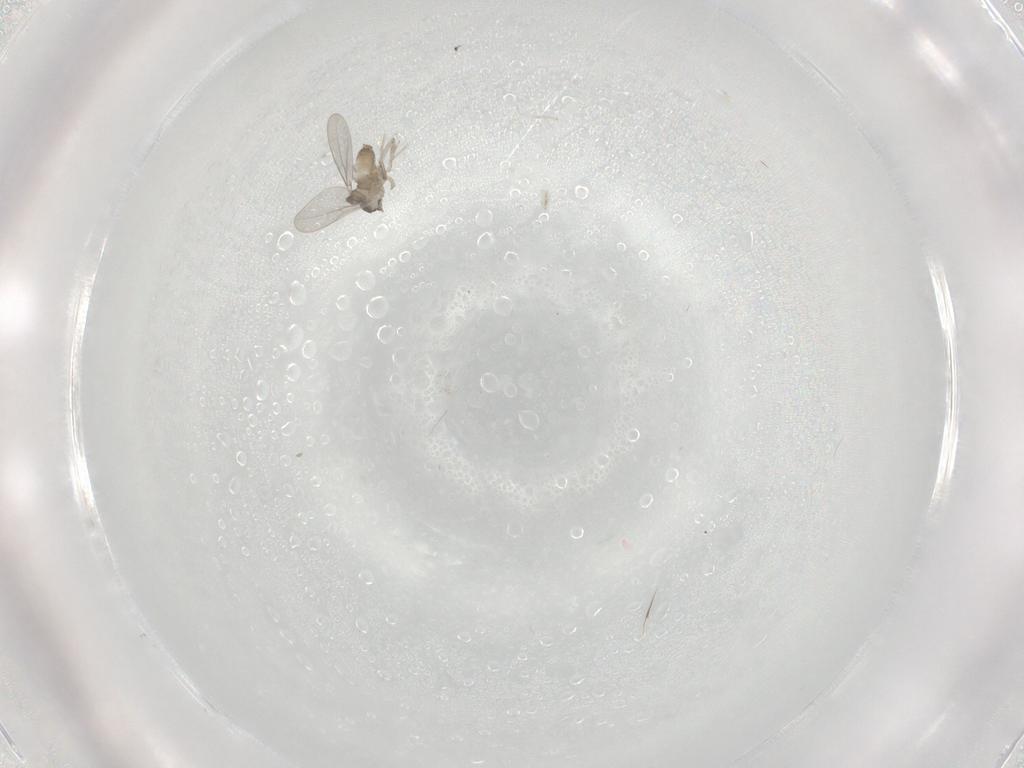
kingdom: Animalia
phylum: Arthropoda
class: Insecta
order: Diptera
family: Cecidomyiidae
